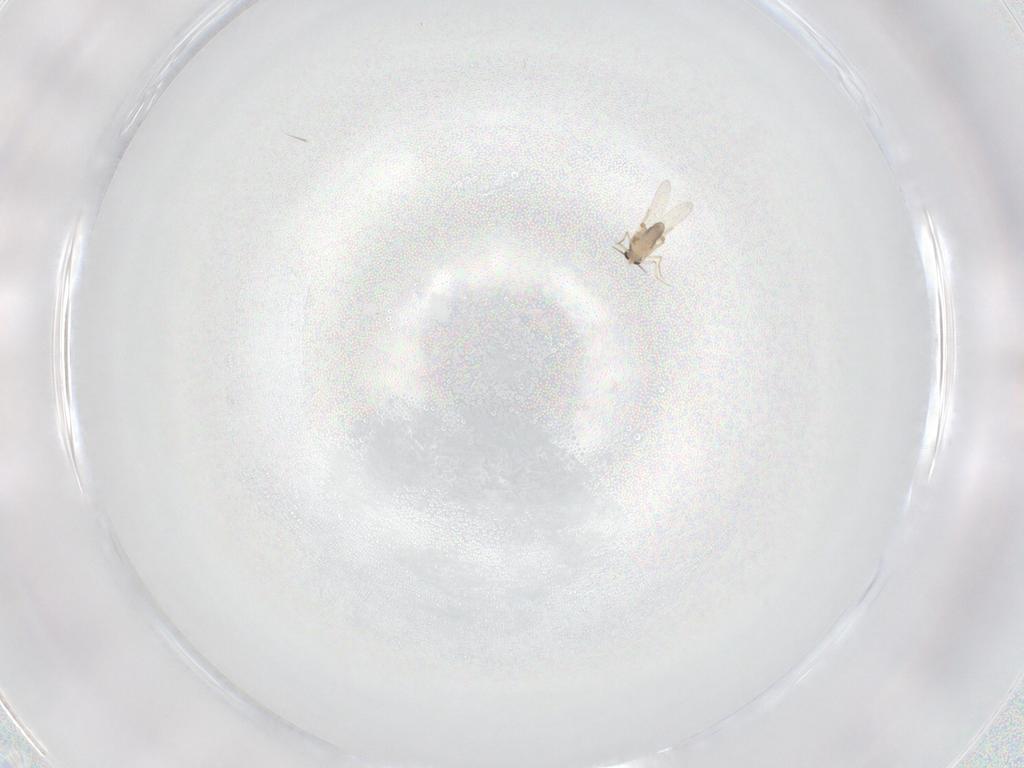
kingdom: Animalia
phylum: Arthropoda
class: Insecta
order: Diptera
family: Ceratopogonidae
